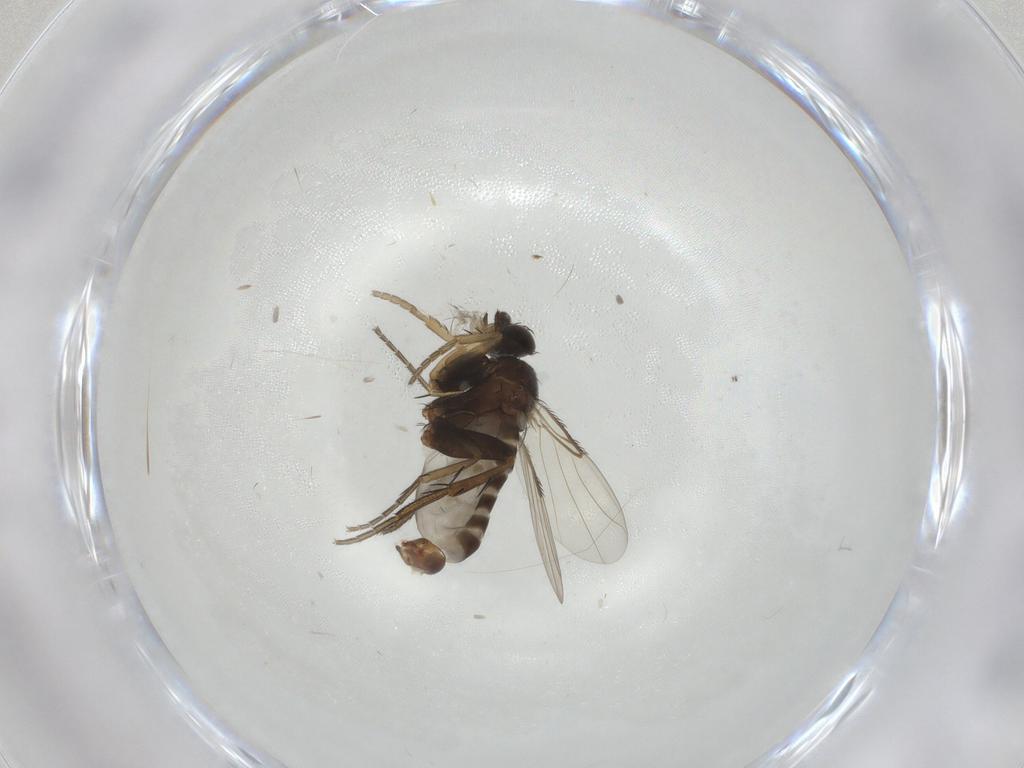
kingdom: Animalia
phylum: Arthropoda
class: Insecta
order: Diptera
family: Phoridae
